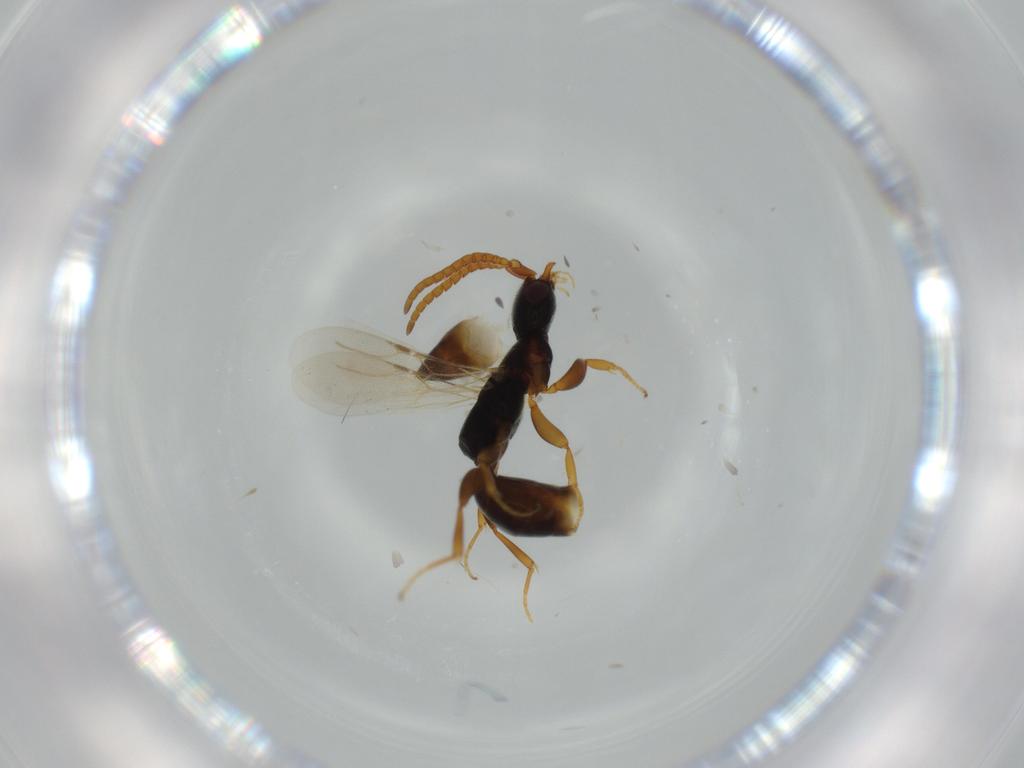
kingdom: Animalia
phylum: Arthropoda
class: Insecta
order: Hymenoptera
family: Bethylidae
